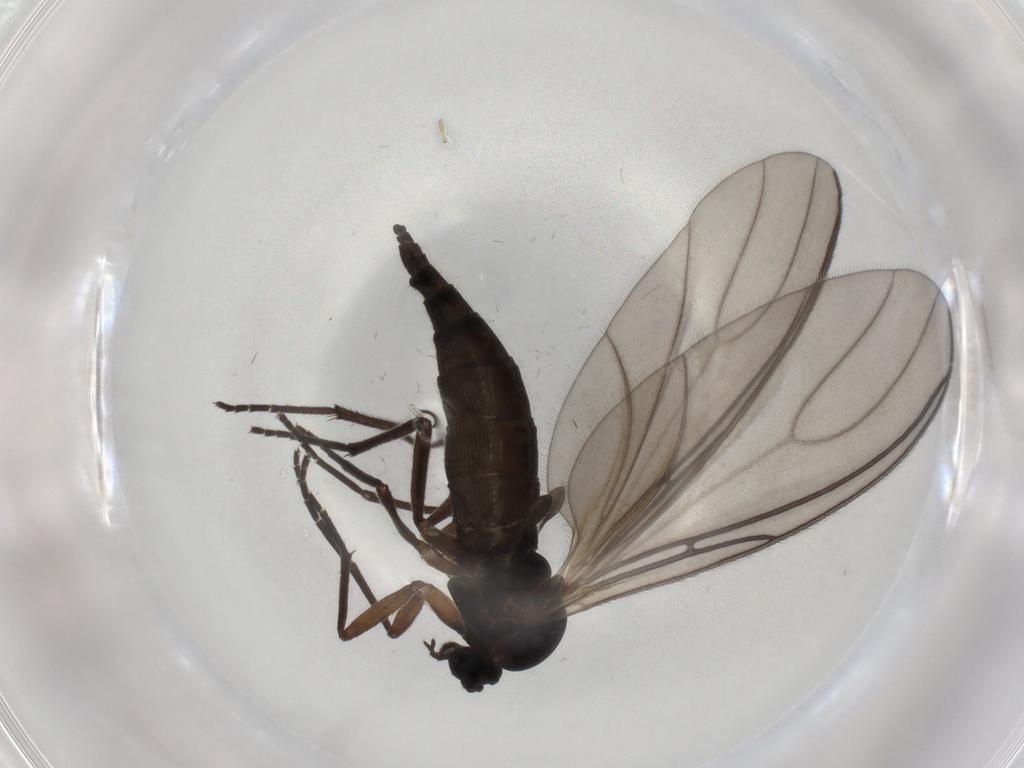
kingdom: Animalia
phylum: Arthropoda
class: Insecta
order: Diptera
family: Sciaridae
